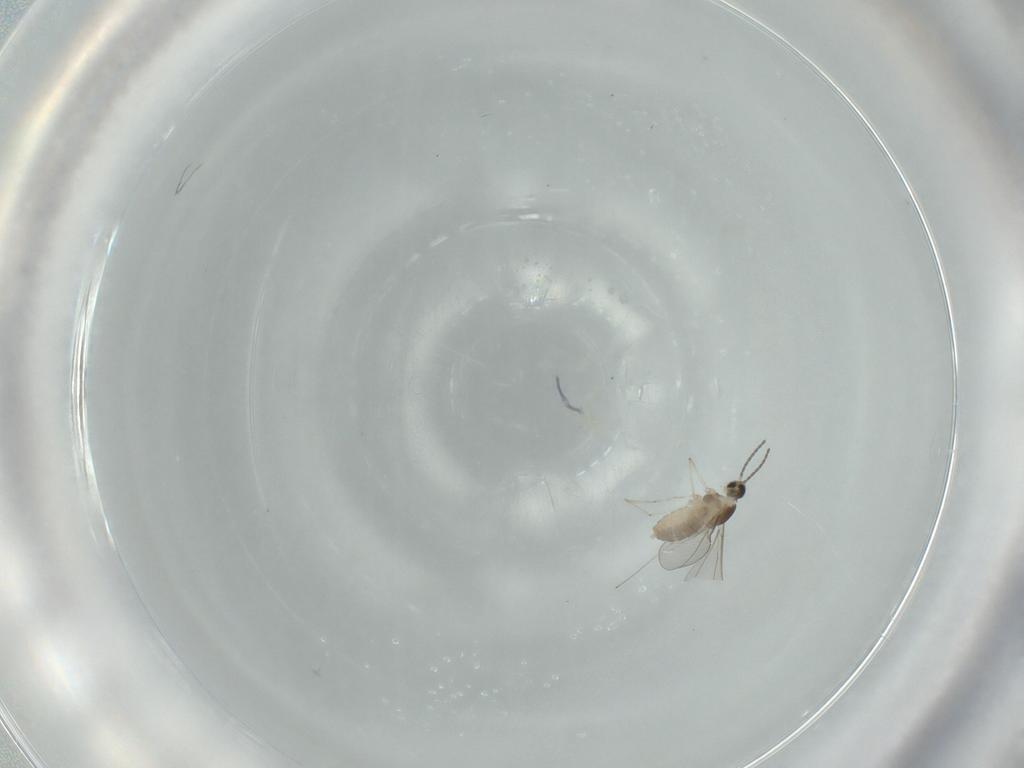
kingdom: Animalia
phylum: Arthropoda
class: Insecta
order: Diptera
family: Cecidomyiidae
